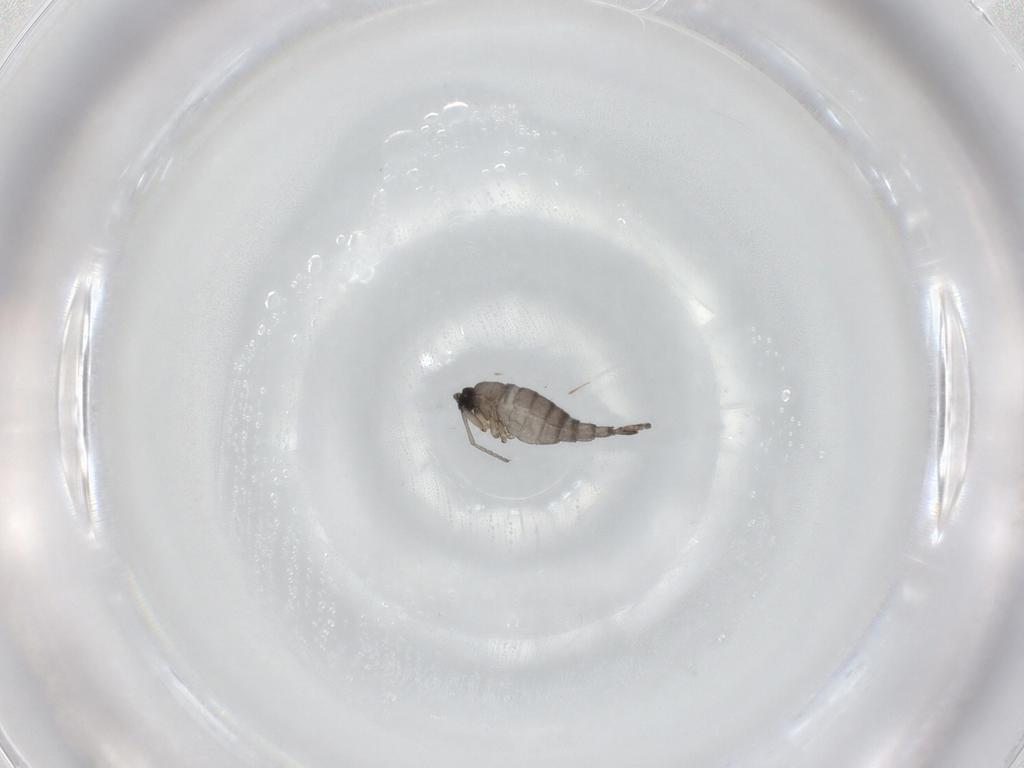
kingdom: Animalia
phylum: Arthropoda
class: Insecta
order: Diptera
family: Sciaridae
